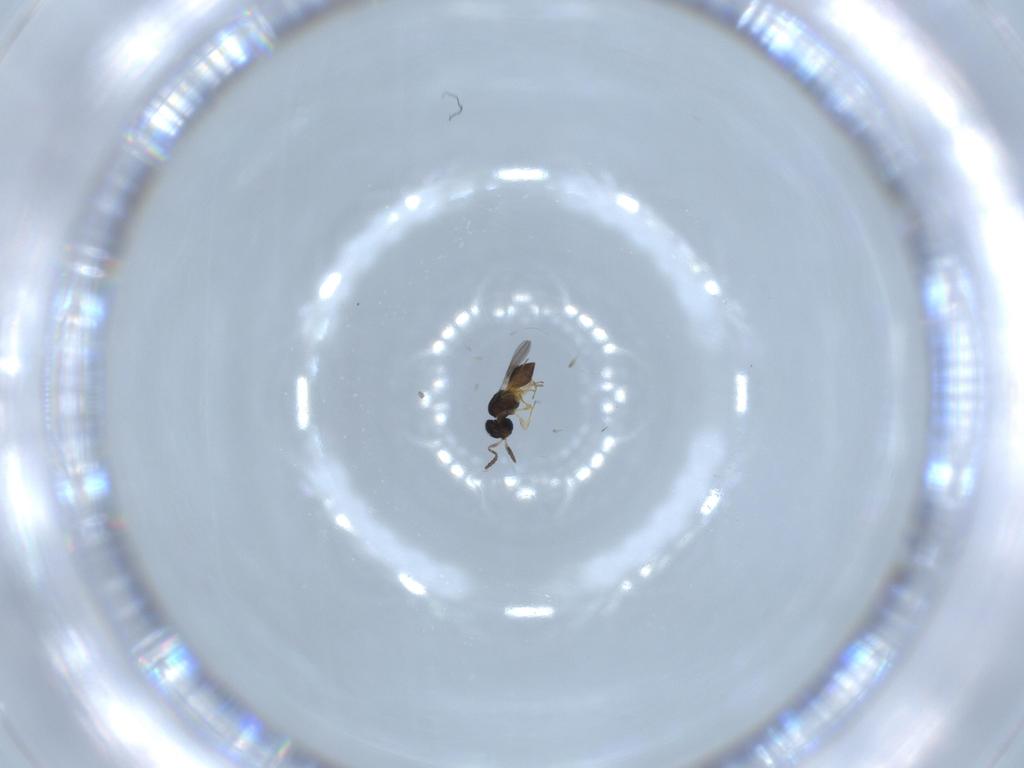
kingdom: Animalia
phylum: Arthropoda
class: Insecta
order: Hymenoptera
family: Scelionidae
